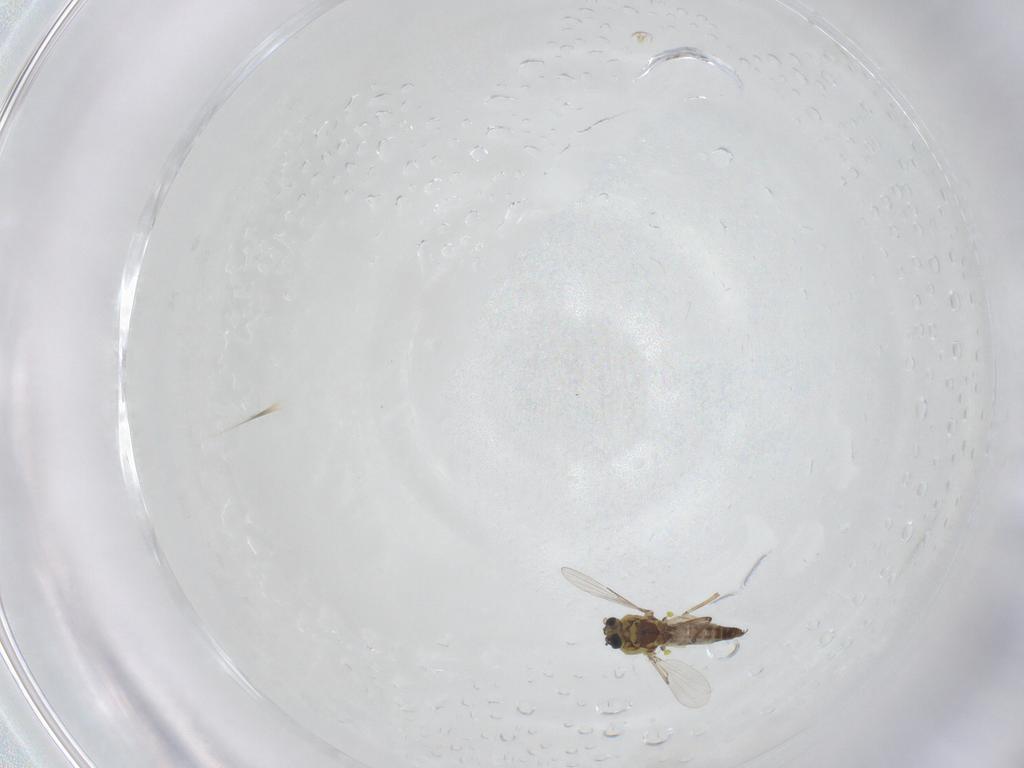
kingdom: Animalia
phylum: Arthropoda
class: Insecta
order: Diptera
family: Ceratopogonidae
